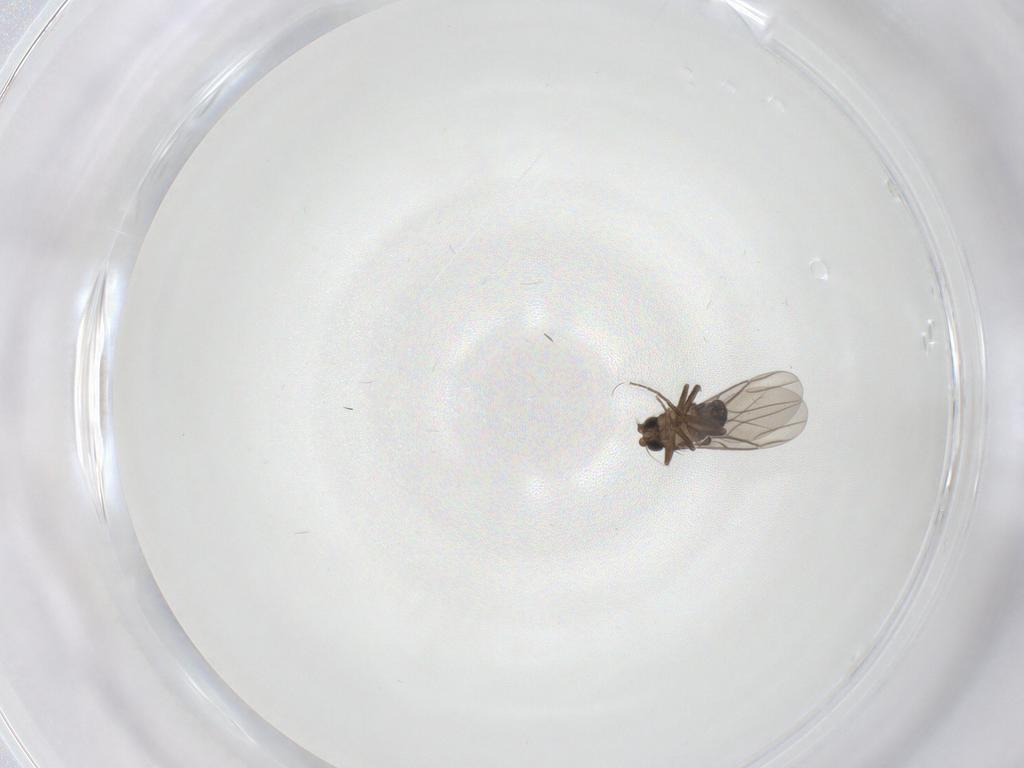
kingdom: Animalia
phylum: Arthropoda
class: Insecta
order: Diptera
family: Phoridae
